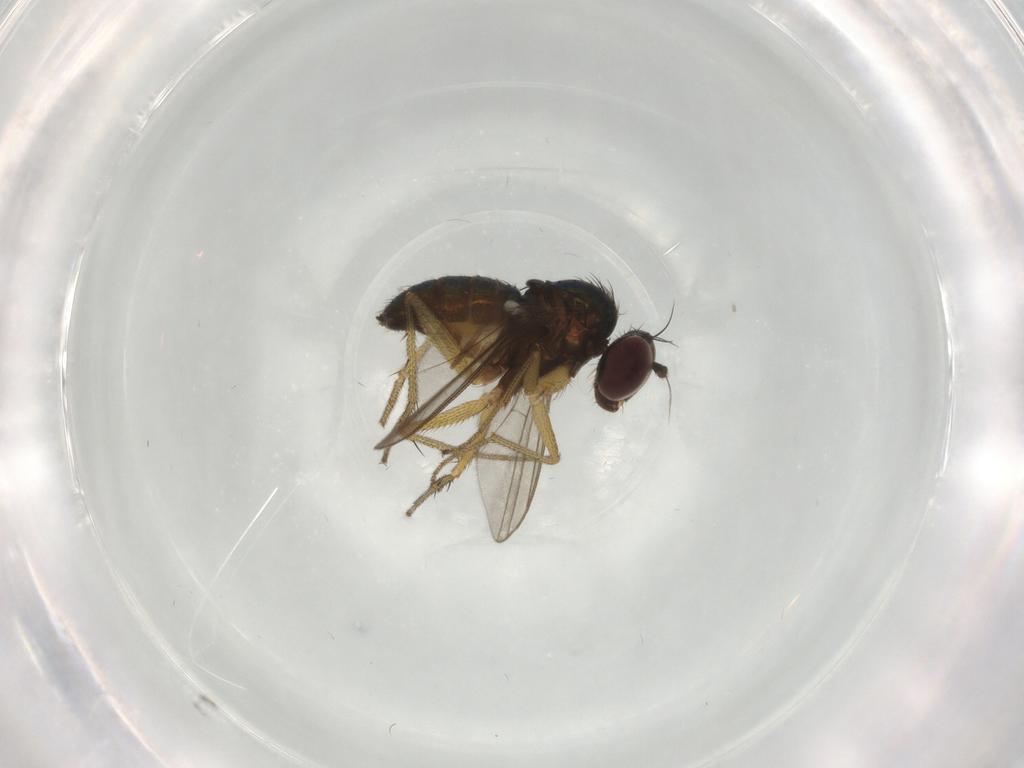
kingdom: Animalia
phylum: Arthropoda
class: Insecta
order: Diptera
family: Dolichopodidae
